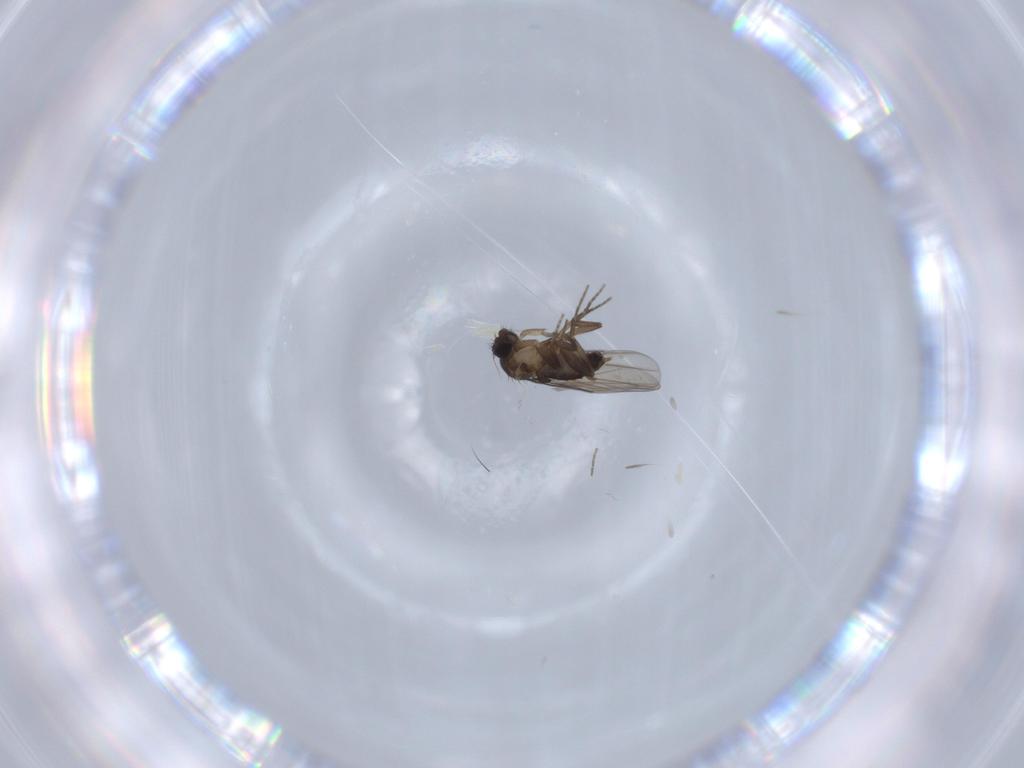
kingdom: Animalia
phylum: Arthropoda
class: Insecta
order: Diptera
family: Phoridae
